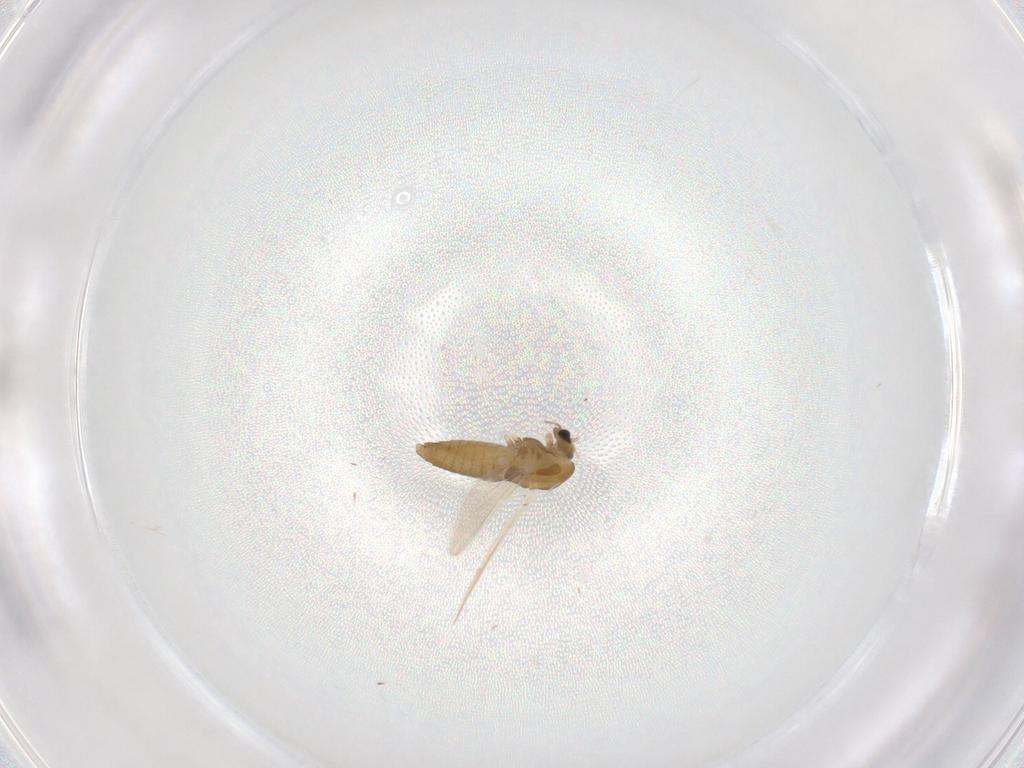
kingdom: Animalia
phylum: Arthropoda
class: Insecta
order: Diptera
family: Sciaridae
